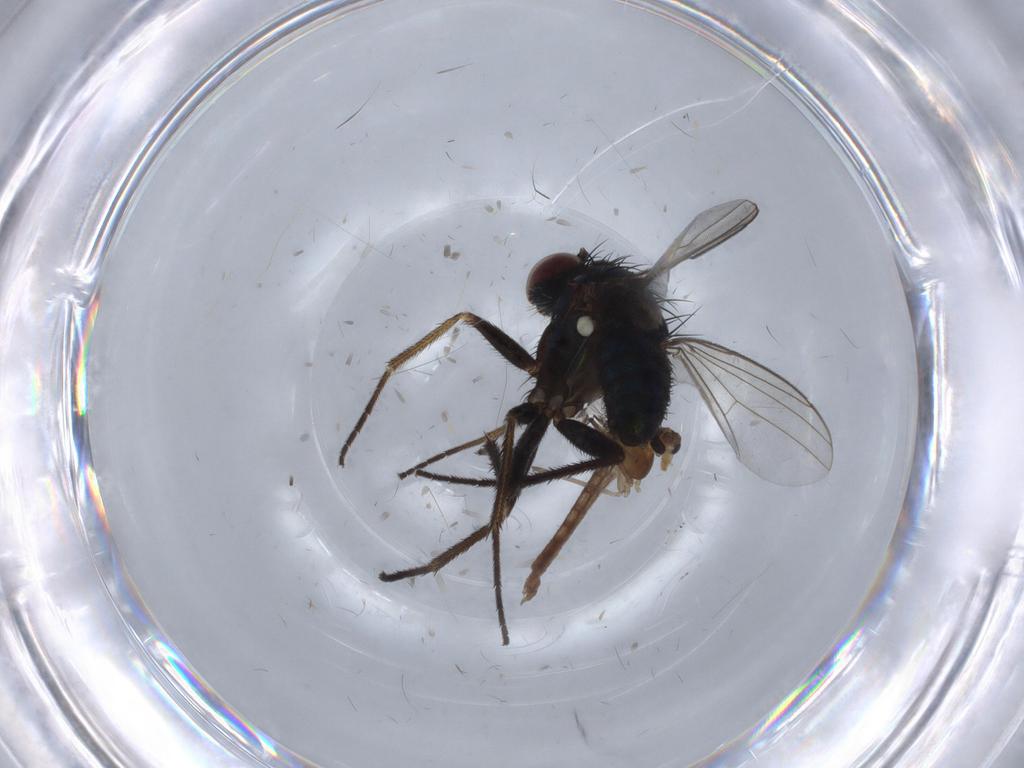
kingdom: Animalia
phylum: Arthropoda
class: Insecta
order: Diptera
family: Dolichopodidae
